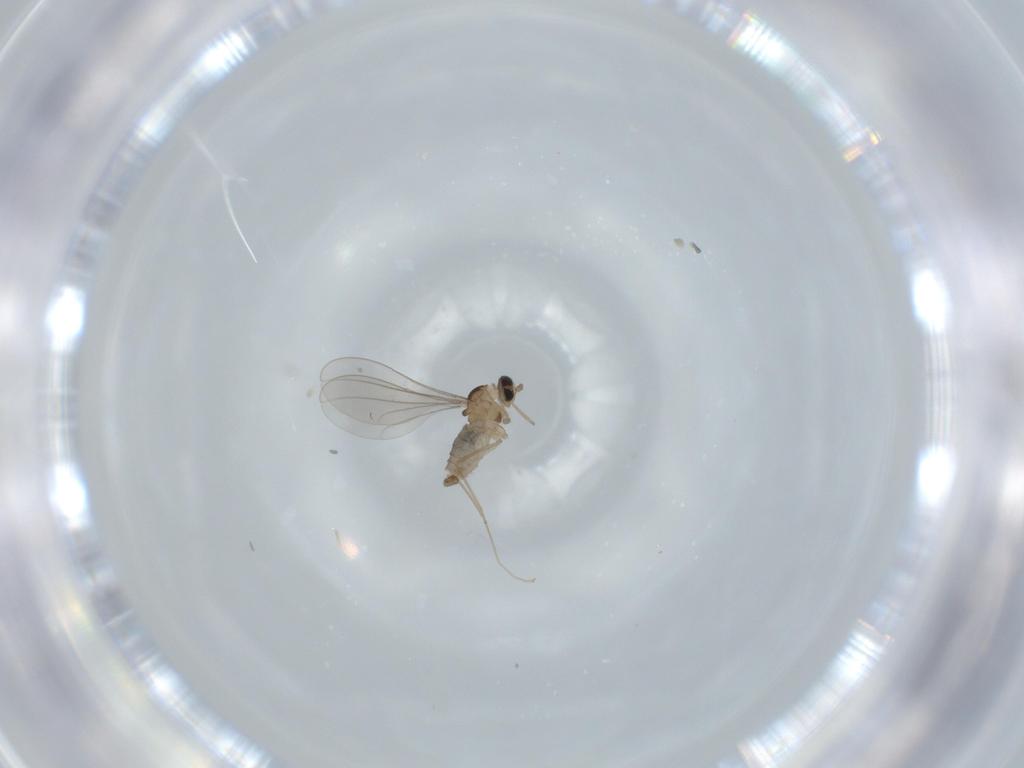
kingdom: Animalia
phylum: Arthropoda
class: Insecta
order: Diptera
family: Cecidomyiidae
